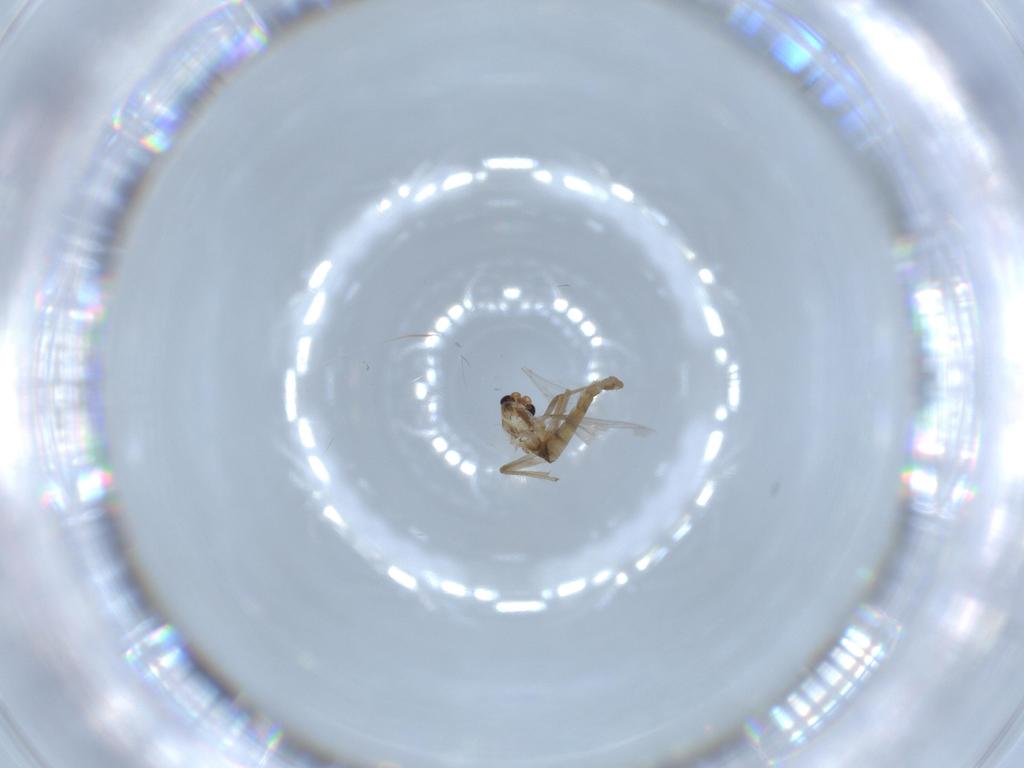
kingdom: Animalia
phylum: Arthropoda
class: Insecta
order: Diptera
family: Chironomidae
